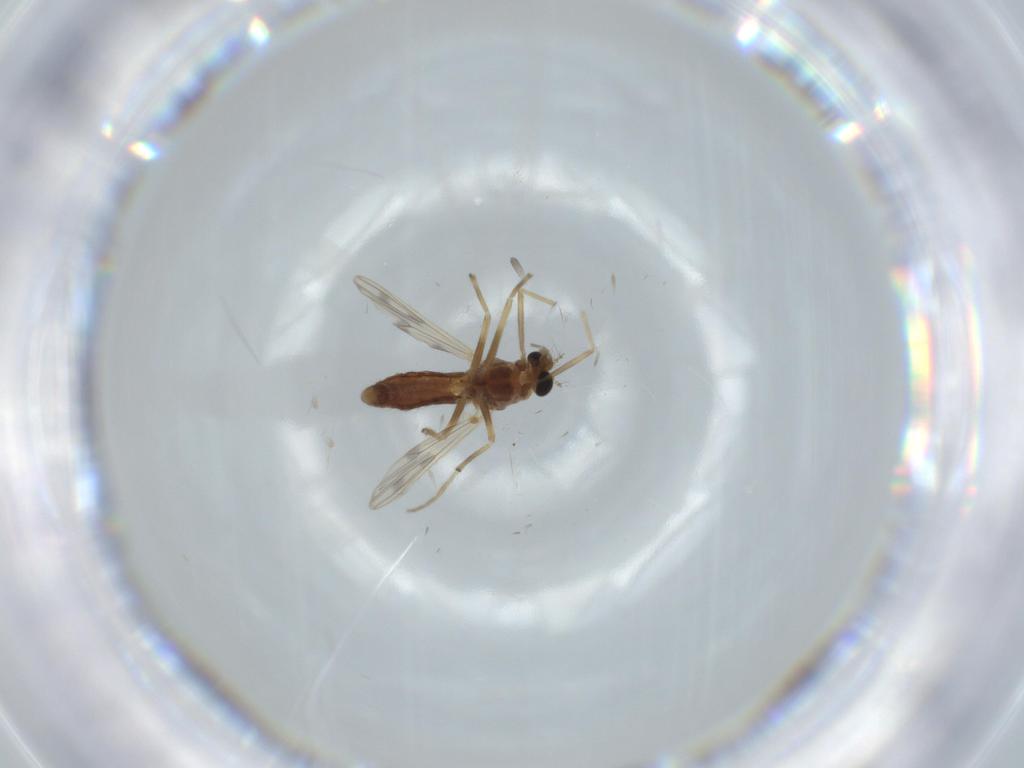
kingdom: Animalia
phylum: Arthropoda
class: Insecta
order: Diptera
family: Chironomidae
